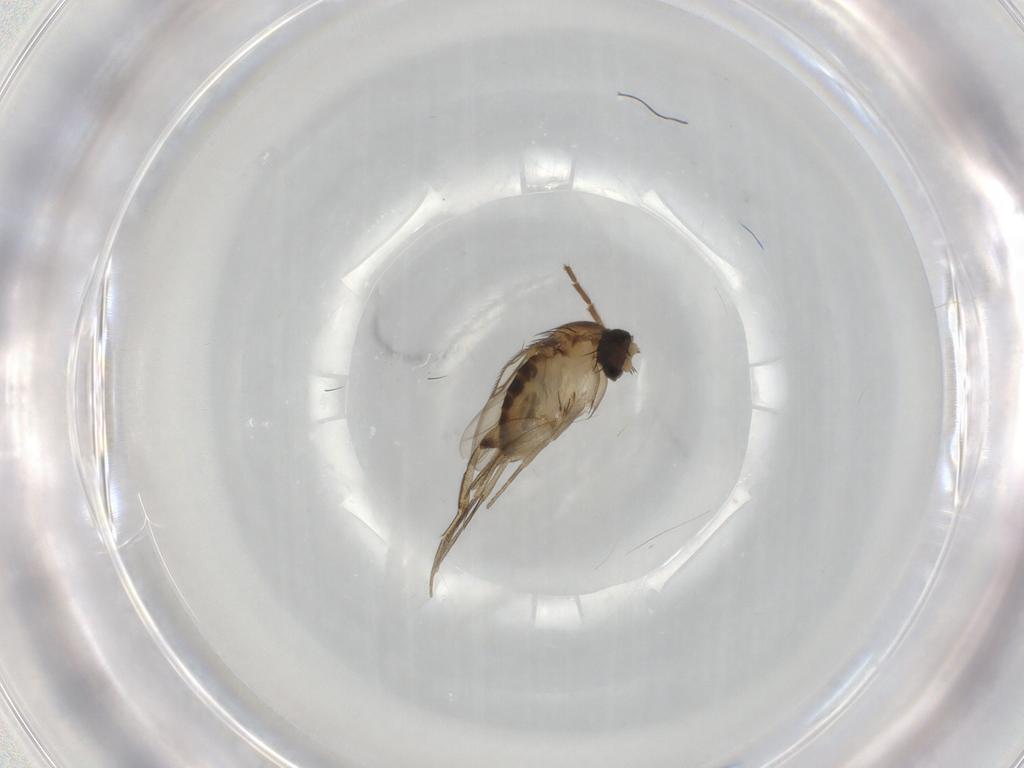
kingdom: Animalia
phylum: Arthropoda
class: Insecta
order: Diptera
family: Phoridae
